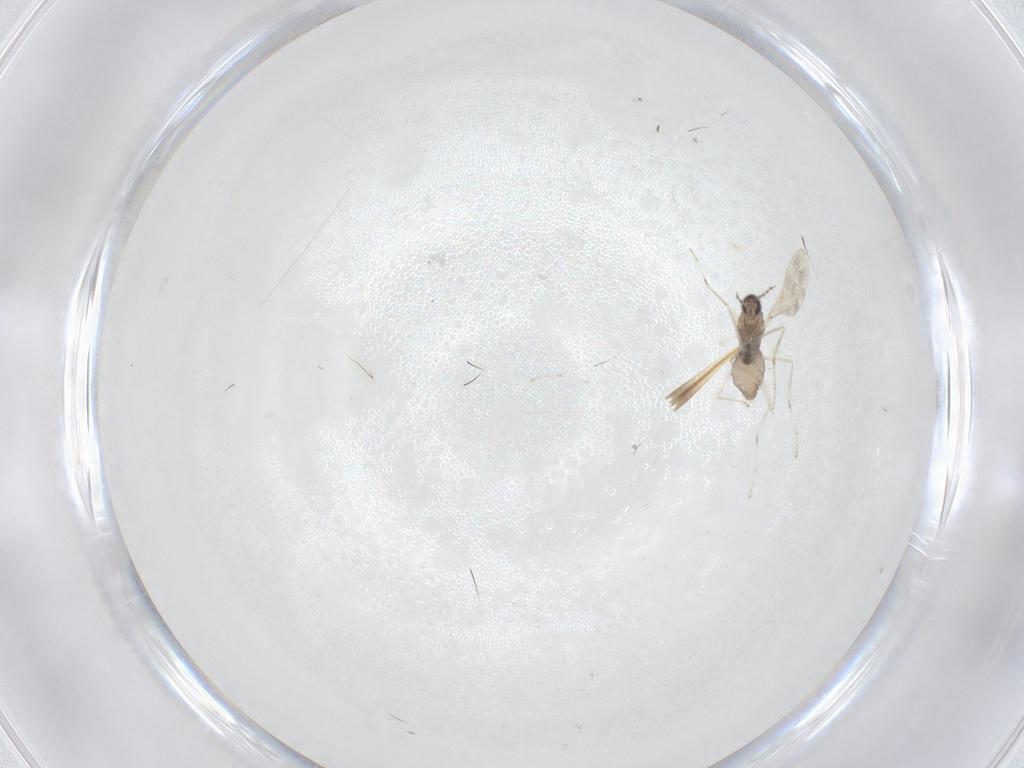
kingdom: Animalia
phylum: Arthropoda
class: Insecta
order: Diptera
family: Cecidomyiidae
